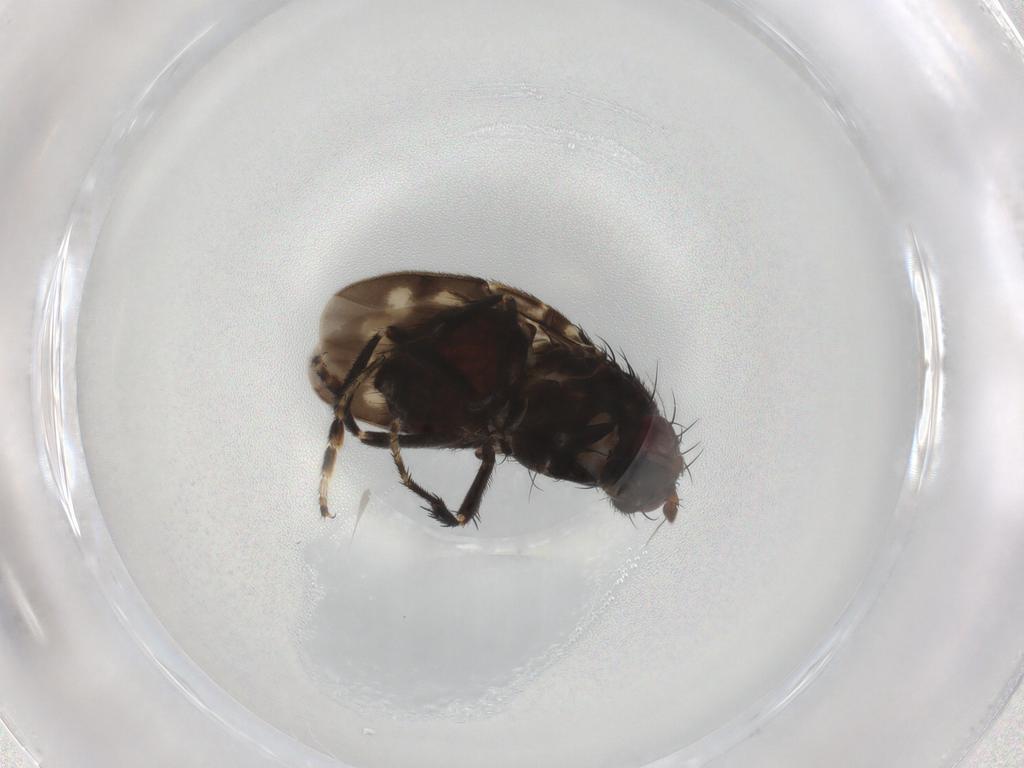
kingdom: Animalia
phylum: Arthropoda
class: Insecta
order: Diptera
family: Sphaeroceridae
